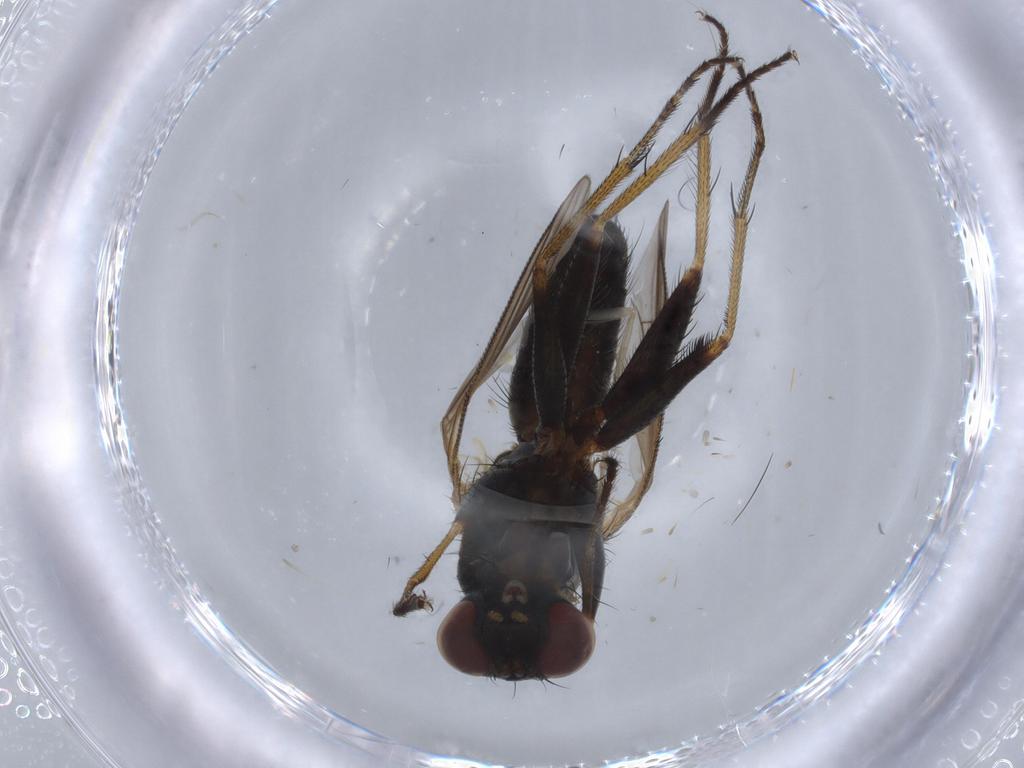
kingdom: Animalia
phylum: Arthropoda
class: Insecta
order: Diptera
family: Muscidae
